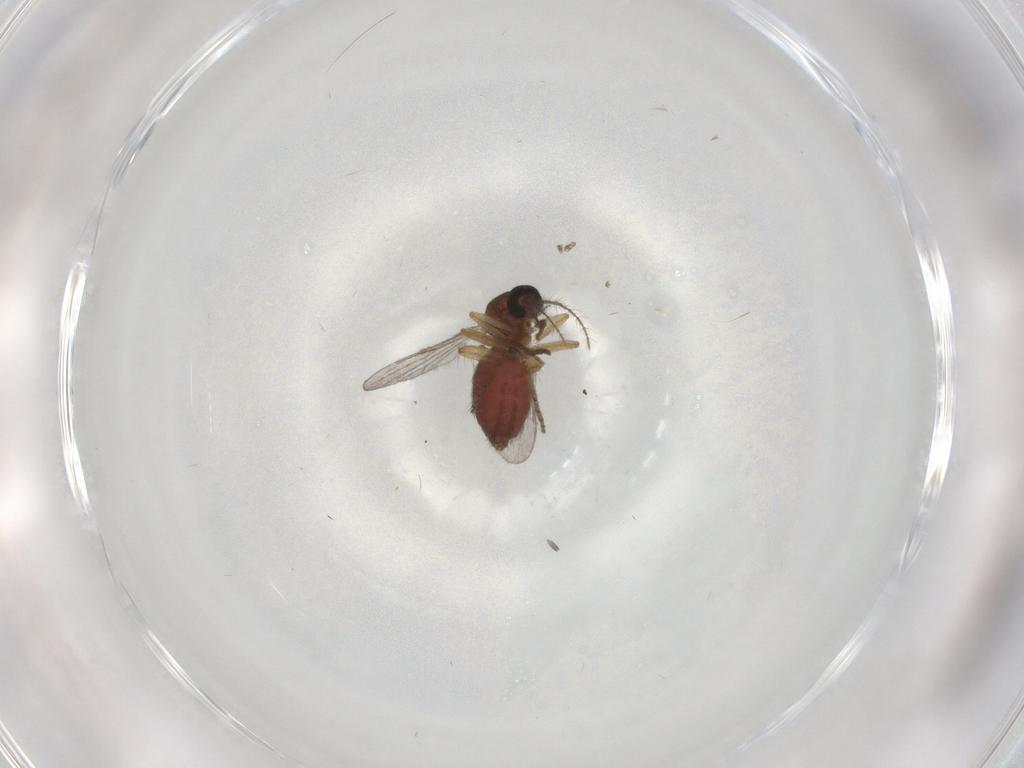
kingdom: Animalia
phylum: Arthropoda
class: Insecta
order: Diptera
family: Ceratopogonidae
